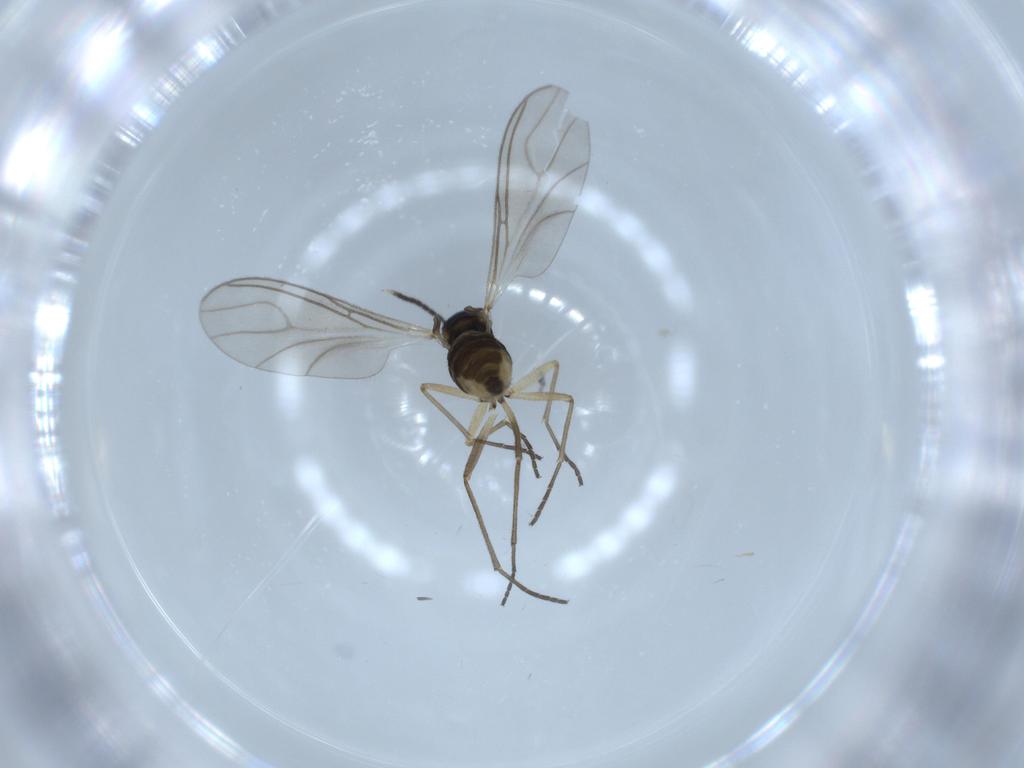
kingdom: Animalia
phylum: Arthropoda
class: Insecta
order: Diptera
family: Sciaridae
